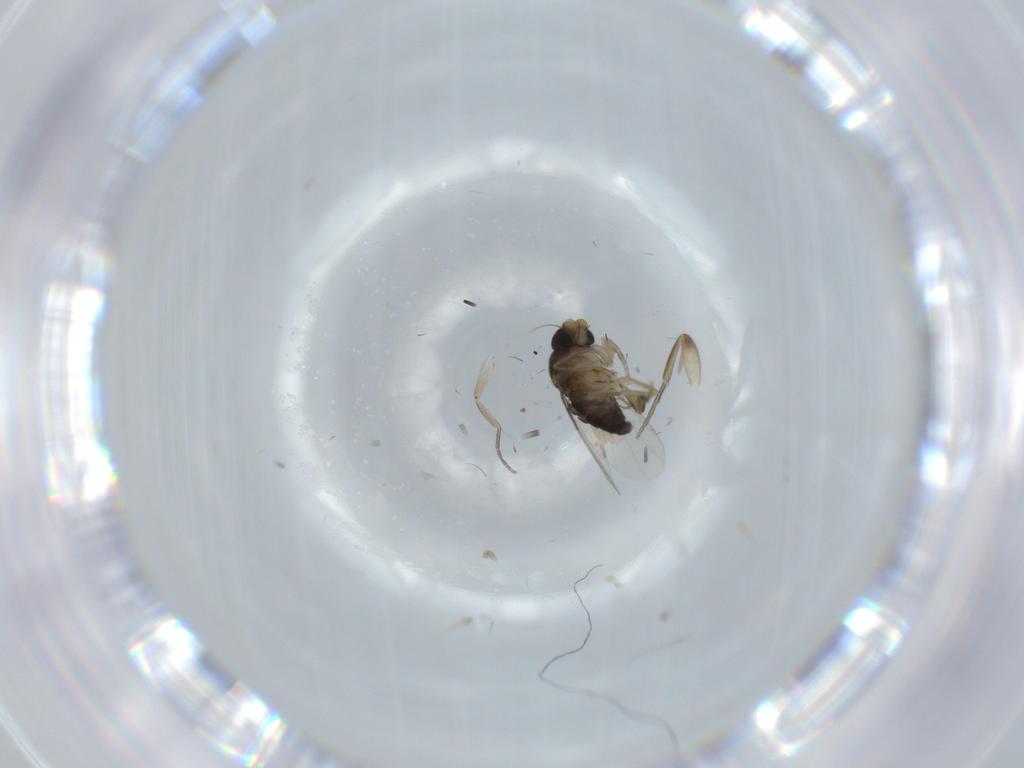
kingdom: Animalia
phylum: Arthropoda
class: Insecta
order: Diptera
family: Phoridae
